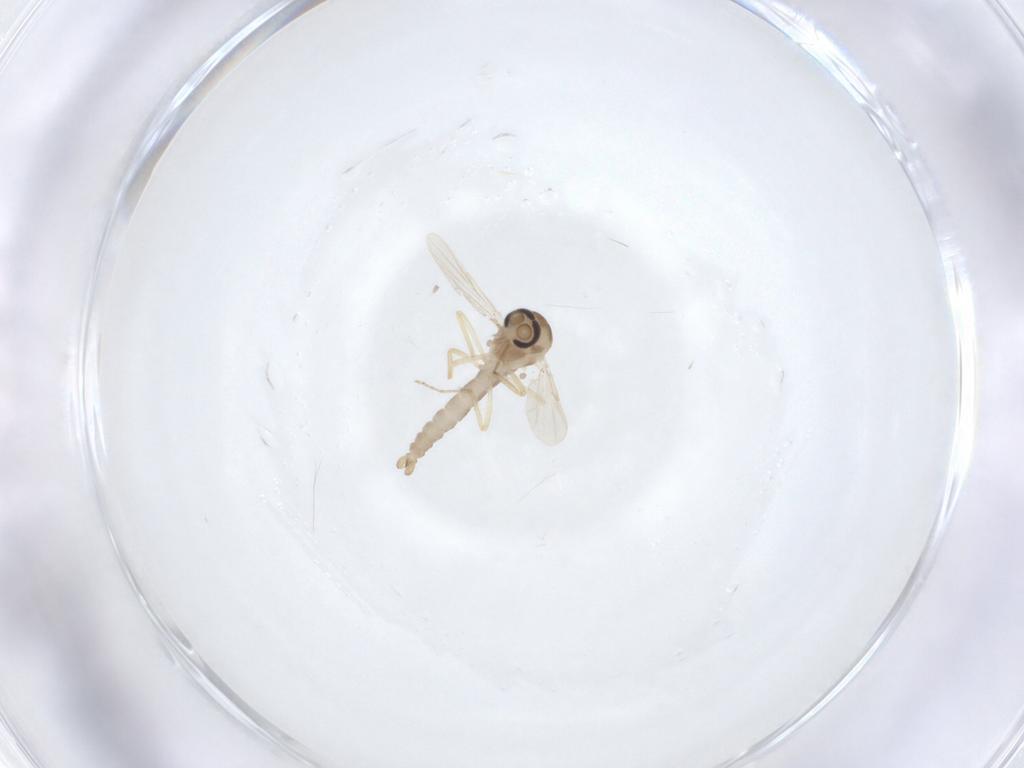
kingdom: Animalia
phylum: Arthropoda
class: Insecta
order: Diptera
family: Ceratopogonidae
